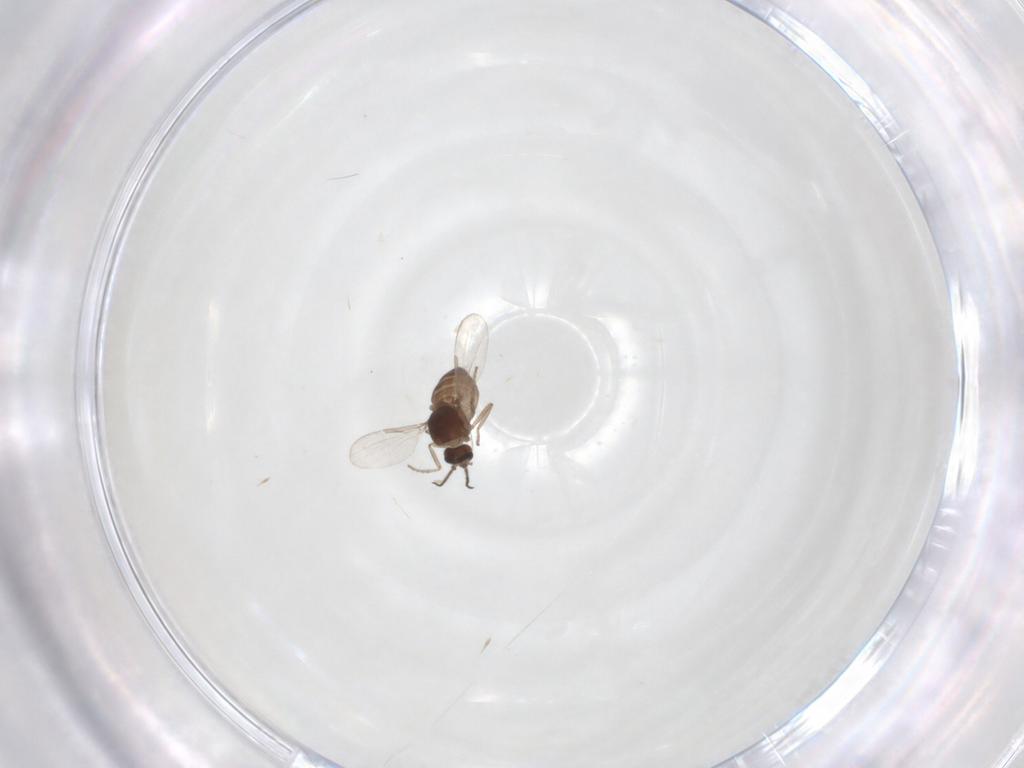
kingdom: Animalia
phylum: Arthropoda
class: Insecta
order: Diptera
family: Ceratopogonidae
